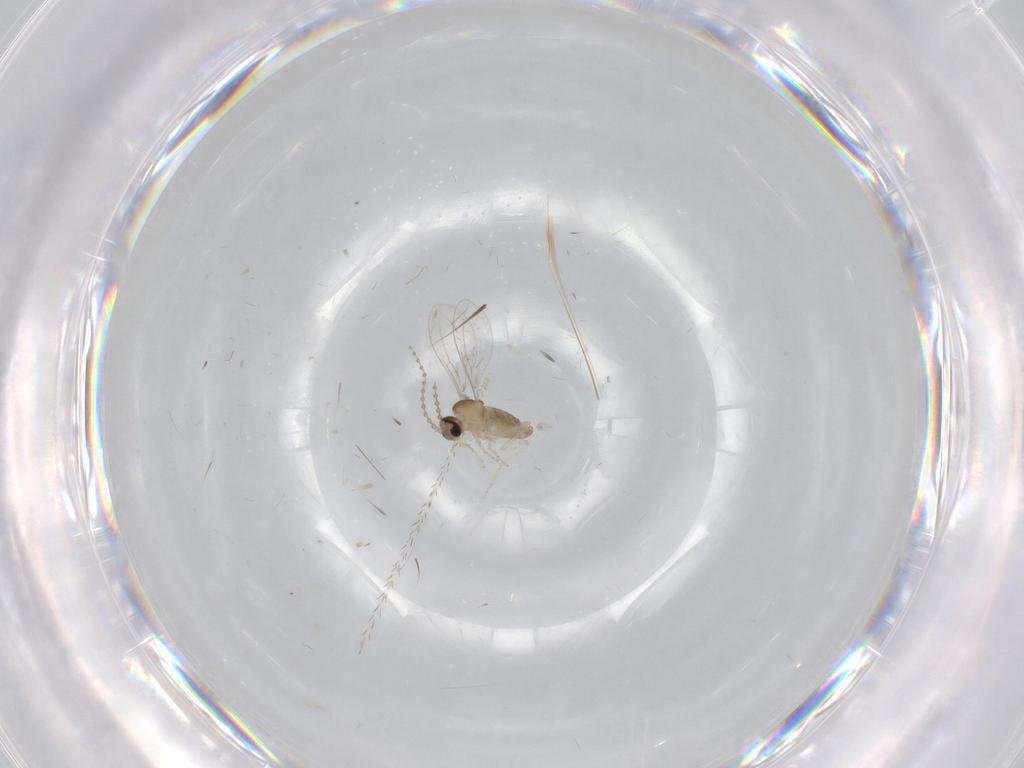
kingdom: Animalia
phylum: Arthropoda
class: Insecta
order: Diptera
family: Cecidomyiidae
